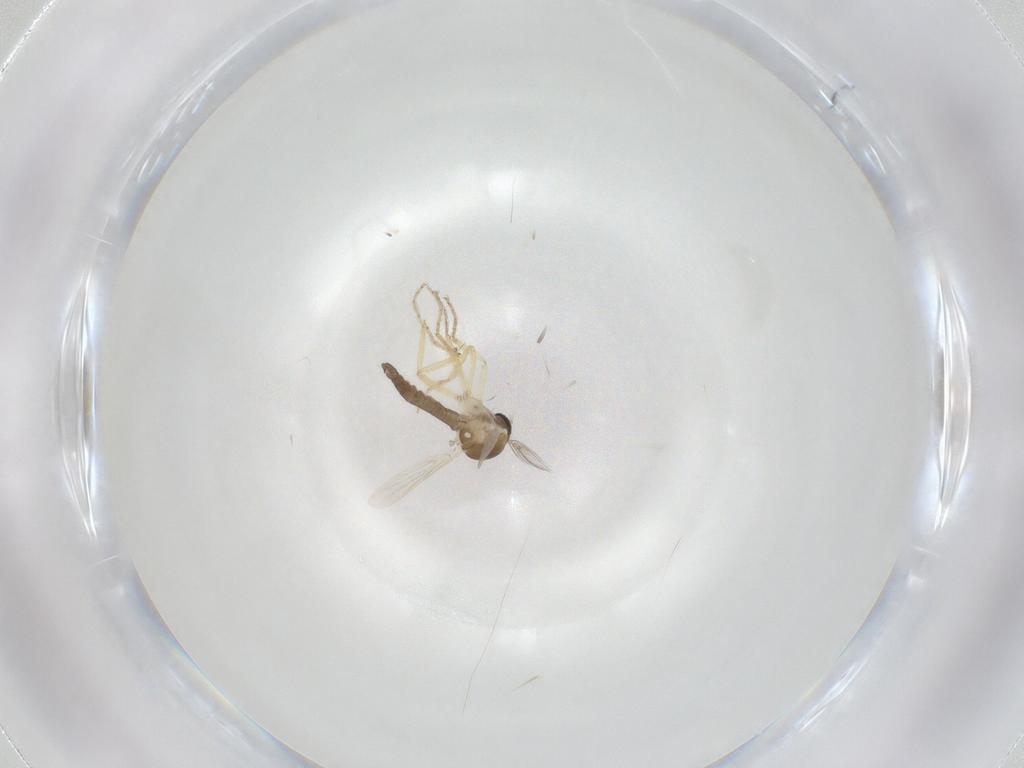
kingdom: Animalia
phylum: Arthropoda
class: Insecta
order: Diptera
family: Ceratopogonidae
